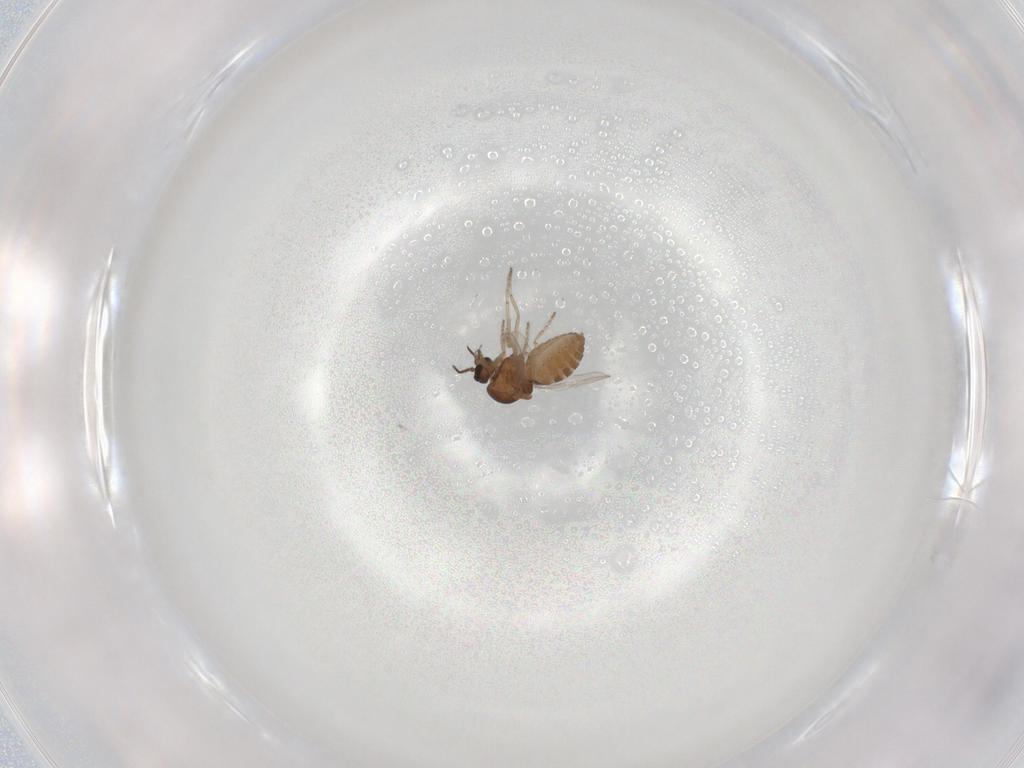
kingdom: Animalia
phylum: Arthropoda
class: Insecta
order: Diptera
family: Ceratopogonidae
